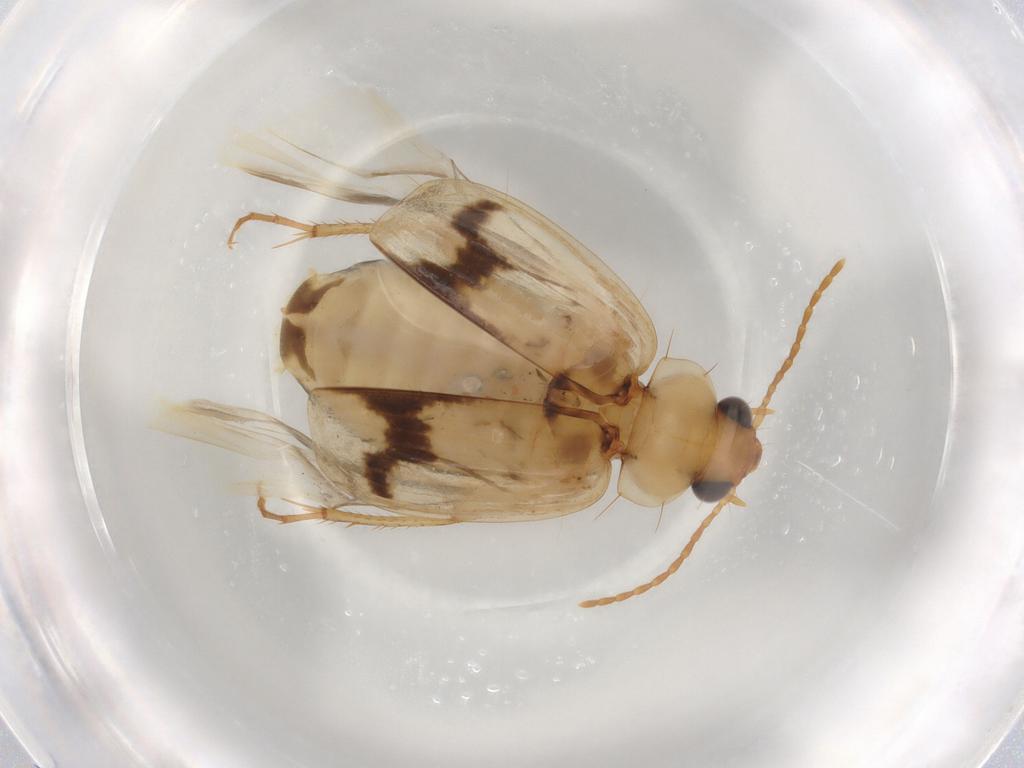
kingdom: Animalia
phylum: Arthropoda
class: Insecta
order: Coleoptera
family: Carabidae
